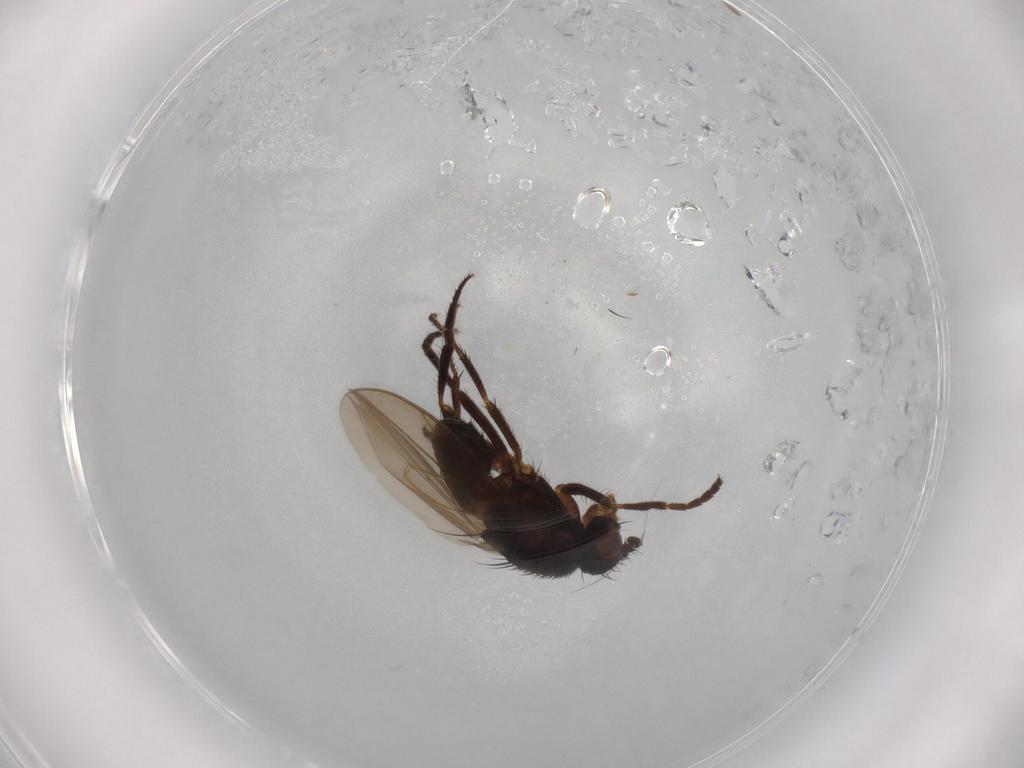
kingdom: Animalia
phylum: Arthropoda
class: Insecta
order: Diptera
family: Sphaeroceridae
